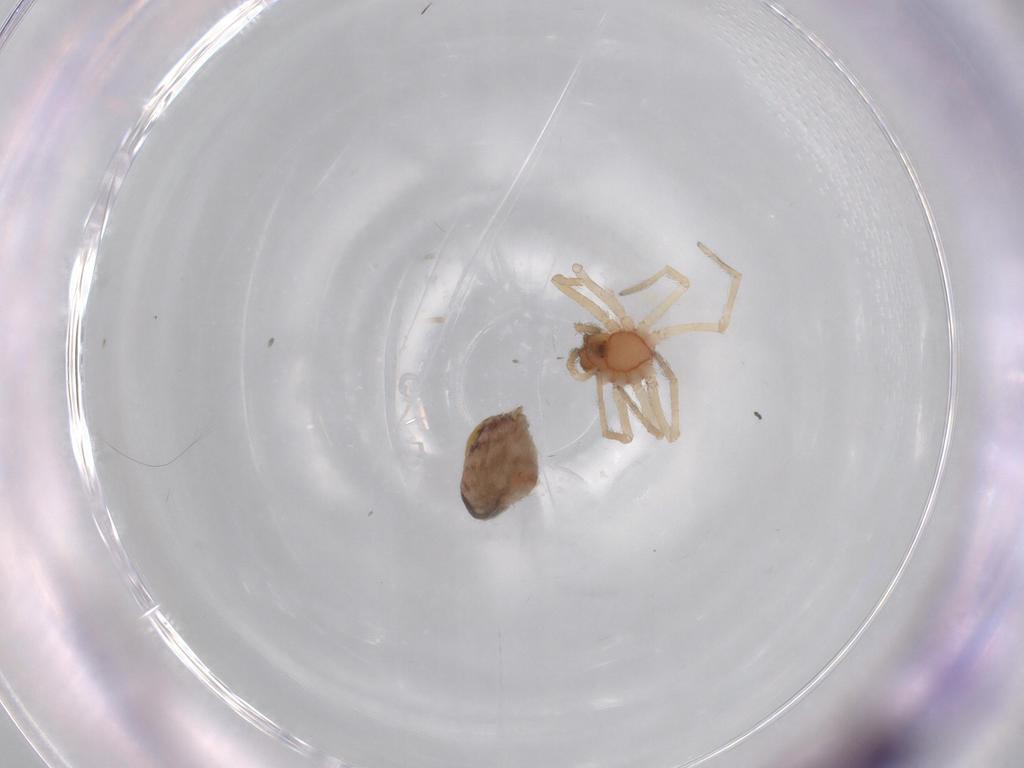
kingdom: Animalia
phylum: Arthropoda
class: Arachnida
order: Araneae
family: Dictynidae
